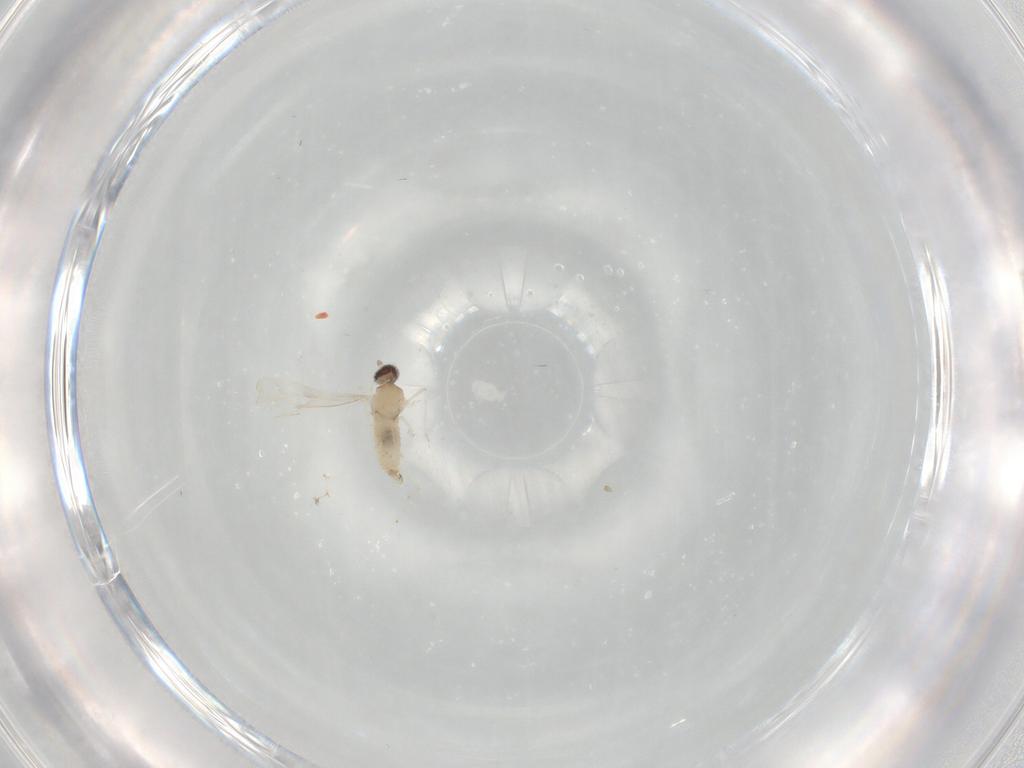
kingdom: Animalia
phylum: Arthropoda
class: Insecta
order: Diptera
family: Cecidomyiidae
